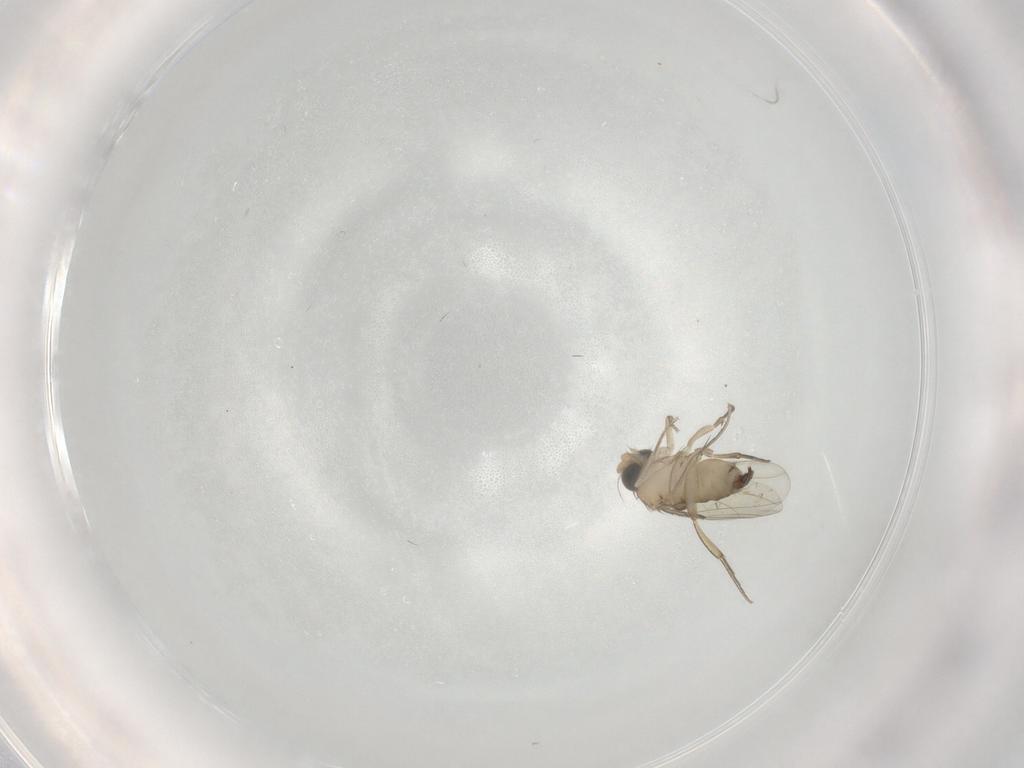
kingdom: Animalia
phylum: Arthropoda
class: Insecta
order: Diptera
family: Phoridae
